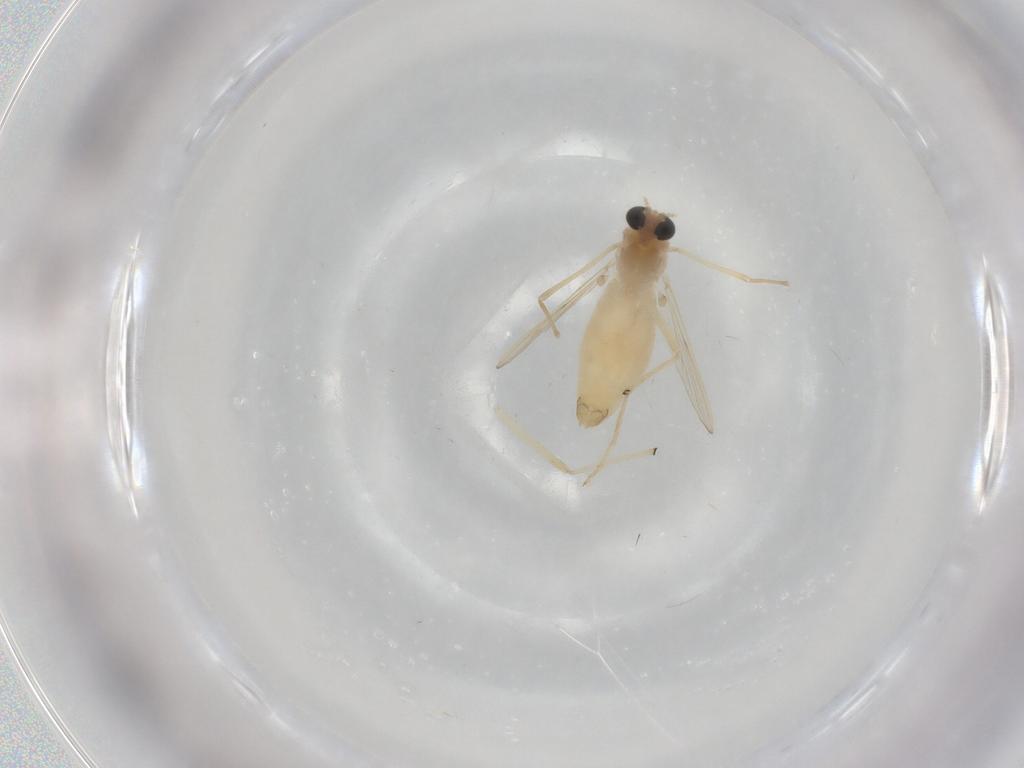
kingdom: Animalia
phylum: Arthropoda
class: Insecta
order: Diptera
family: Chironomidae
